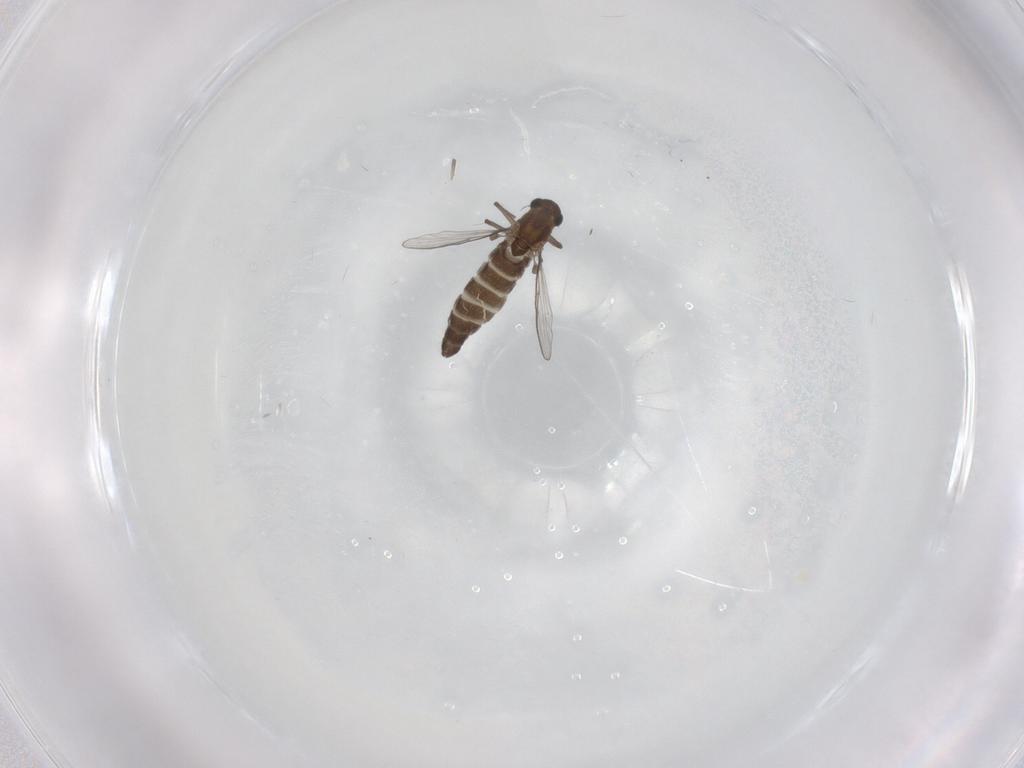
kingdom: Animalia
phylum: Arthropoda
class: Insecta
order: Diptera
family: Chironomidae
